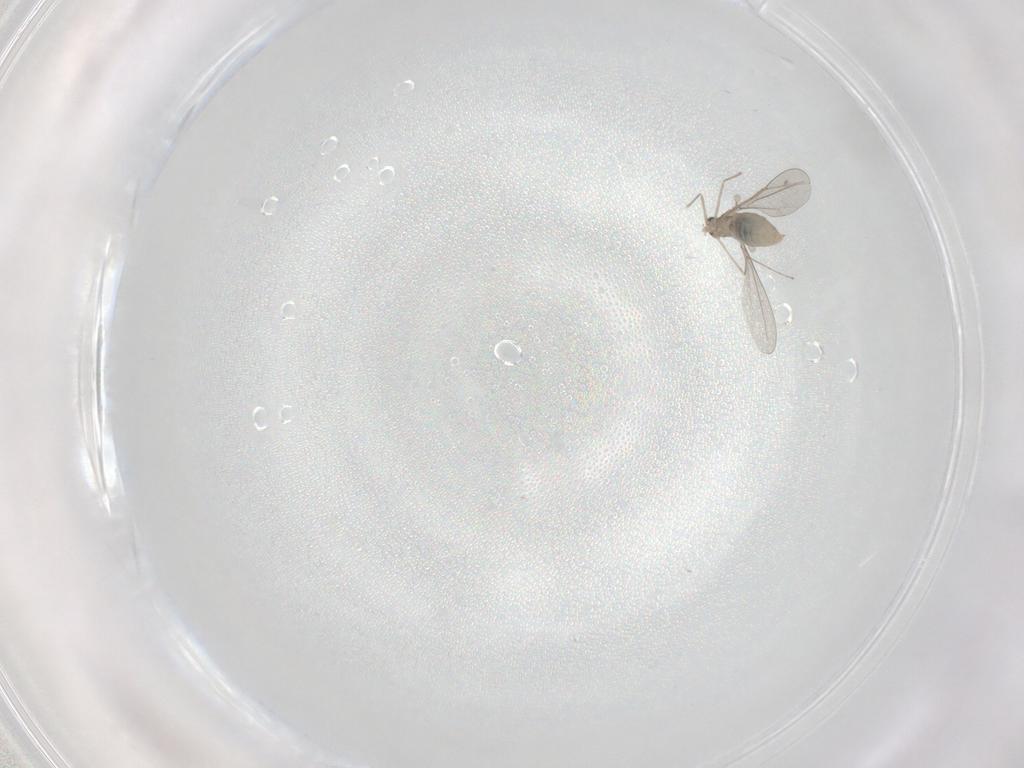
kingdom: Animalia
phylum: Arthropoda
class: Insecta
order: Diptera
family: Cecidomyiidae
